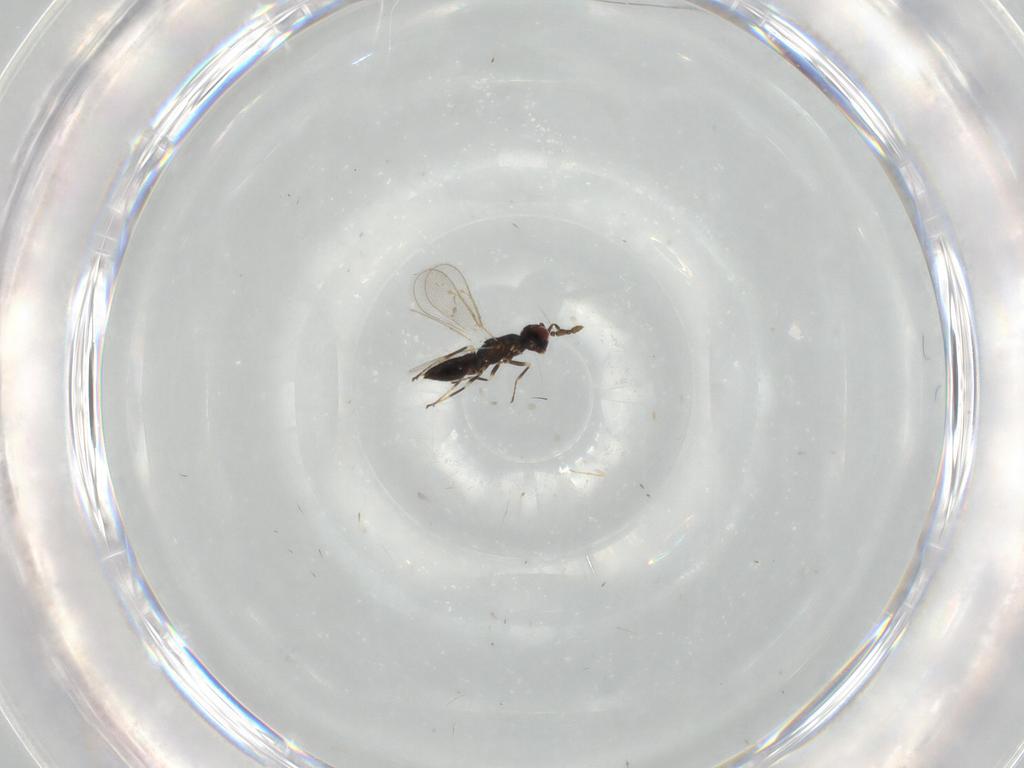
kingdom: Animalia
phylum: Arthropoda
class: Insecta
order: Hymenoptera
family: Eulophidae
